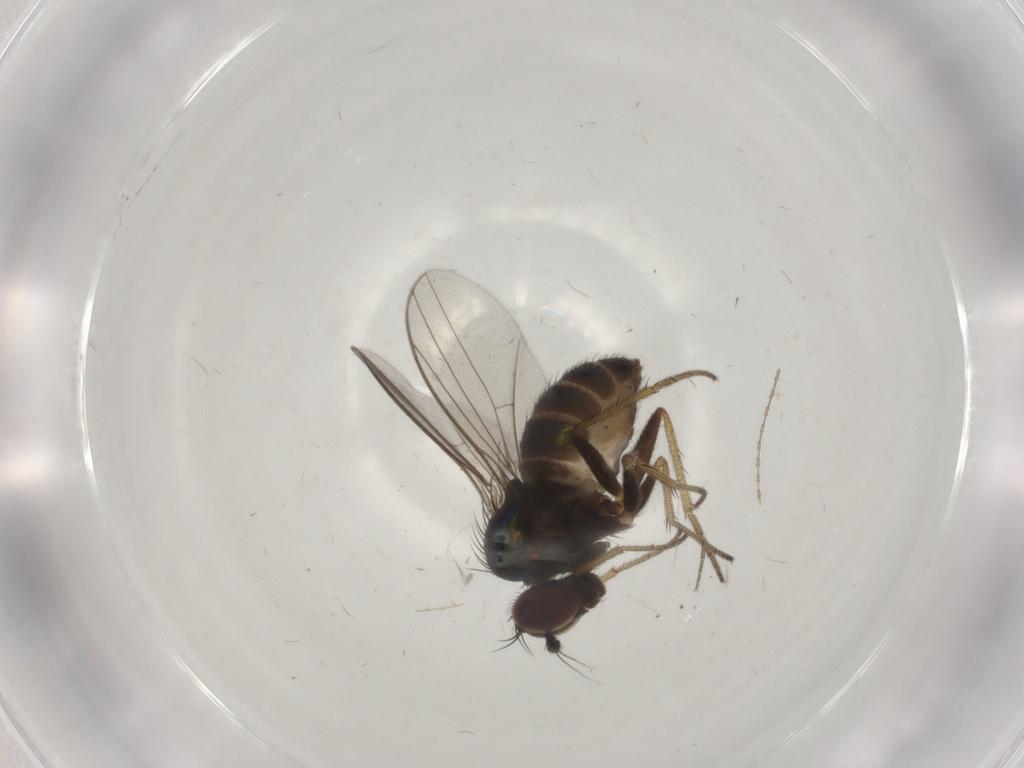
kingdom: Animalia
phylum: Arthropoda
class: Insecta
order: Diptera
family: Dolichopodidae
